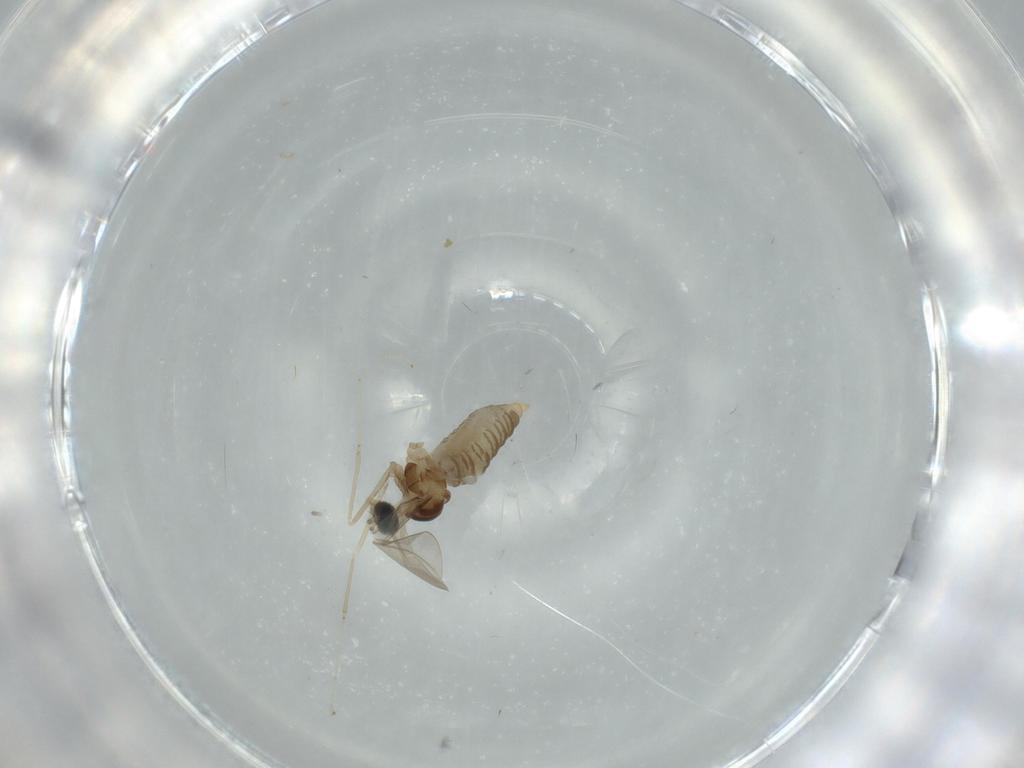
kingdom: Animalia
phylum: Arthropoda
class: Insecta
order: Diptera
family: Cecidomyiidae
